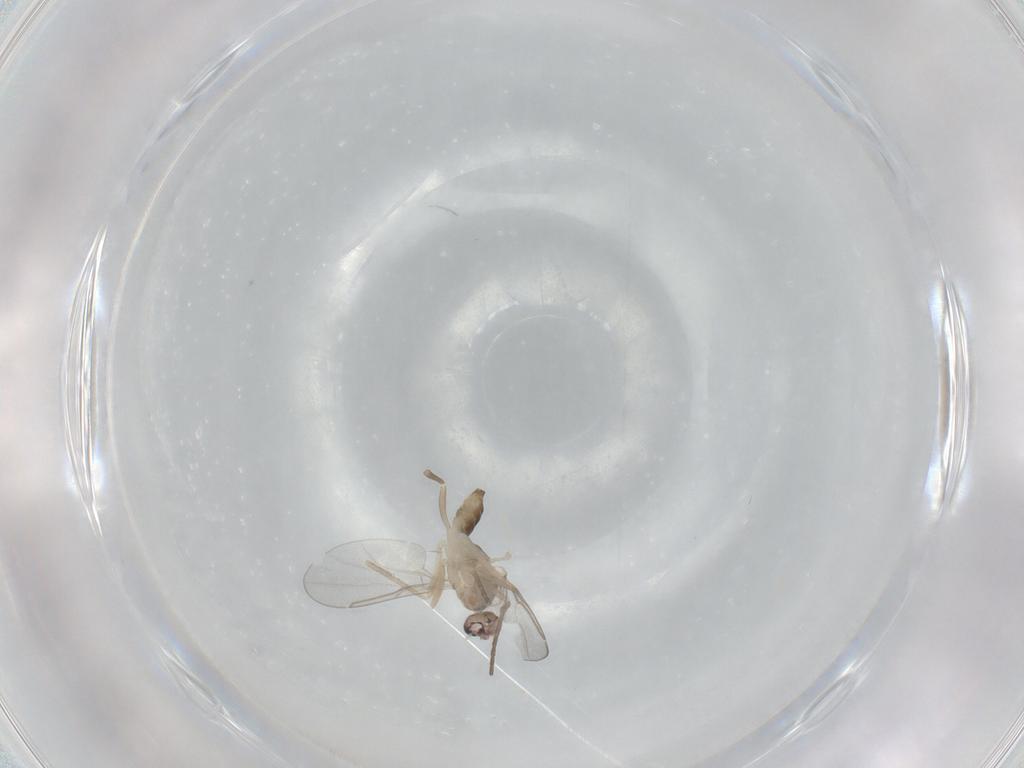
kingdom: Animalia
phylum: Arthropoda
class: Insecta
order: Diptera
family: Cecidomyiidae
